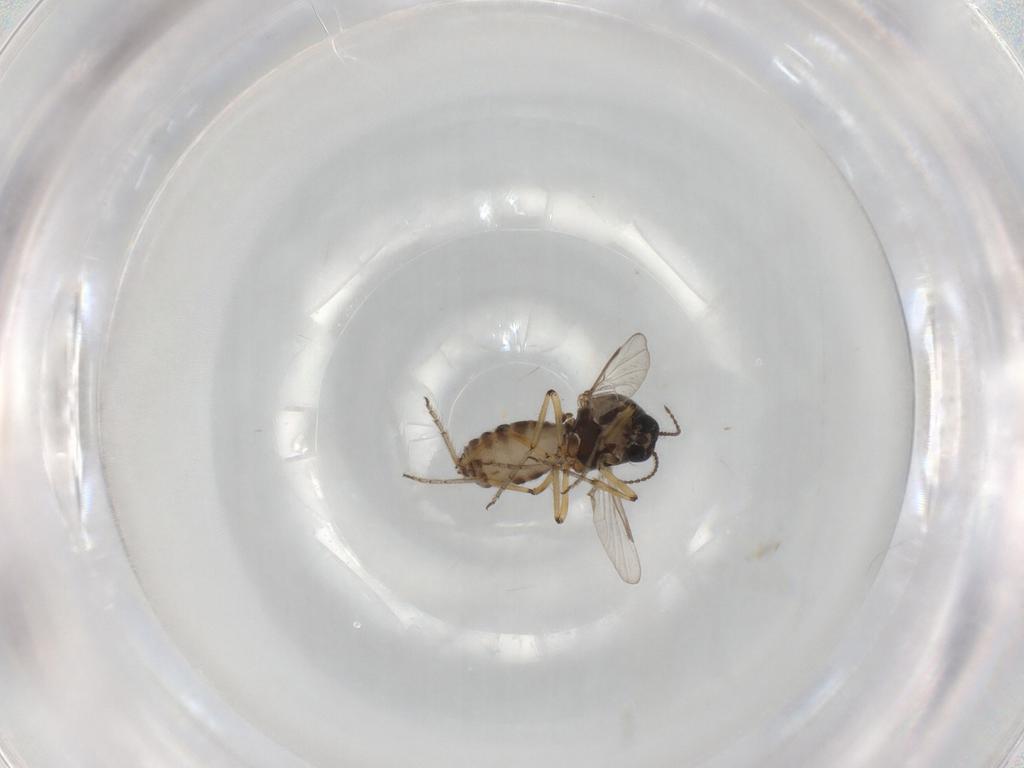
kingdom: Animalia
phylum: Arthropoda
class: Insecta
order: Diptera
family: Ceratopogonidae
